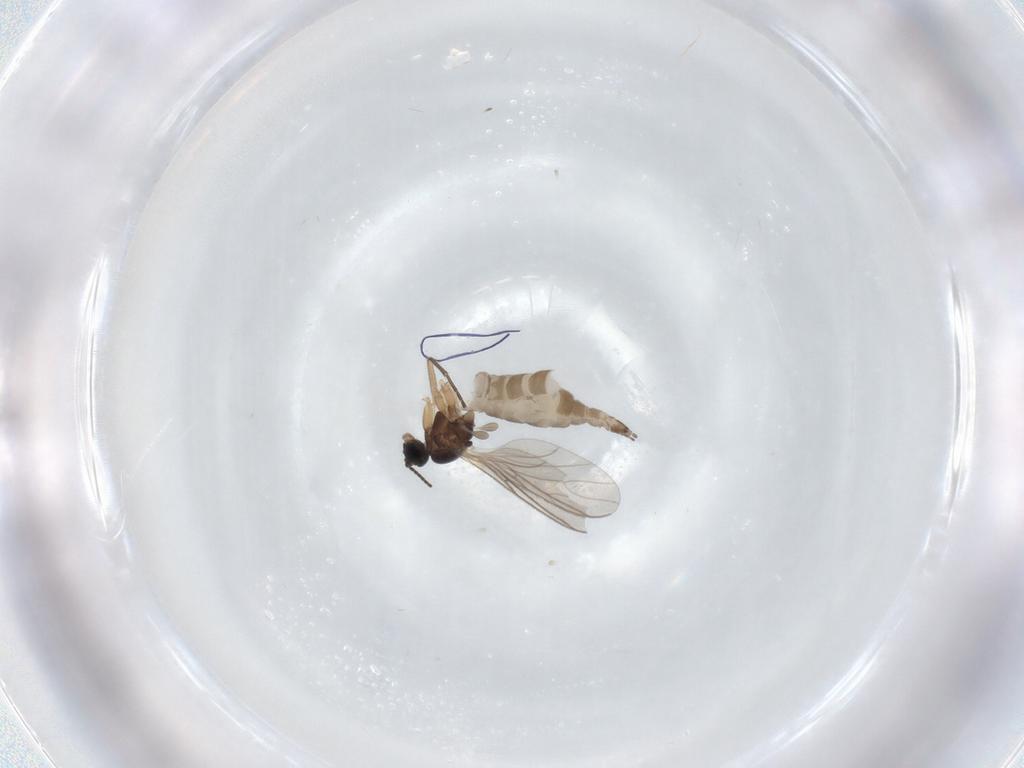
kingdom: Animalia
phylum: Arthropoda
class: Insecta
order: Diptera
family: Sciaridae
